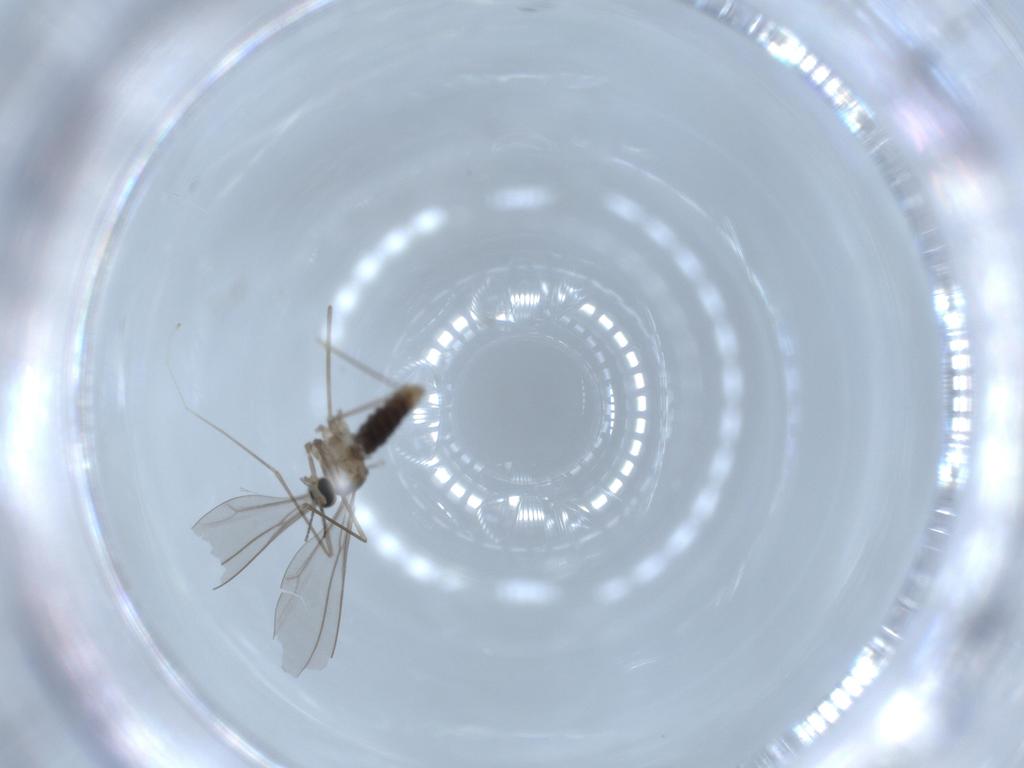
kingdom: Animalia
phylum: Arthropoda
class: Insecta
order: Diptera
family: Cecidomyiidae
